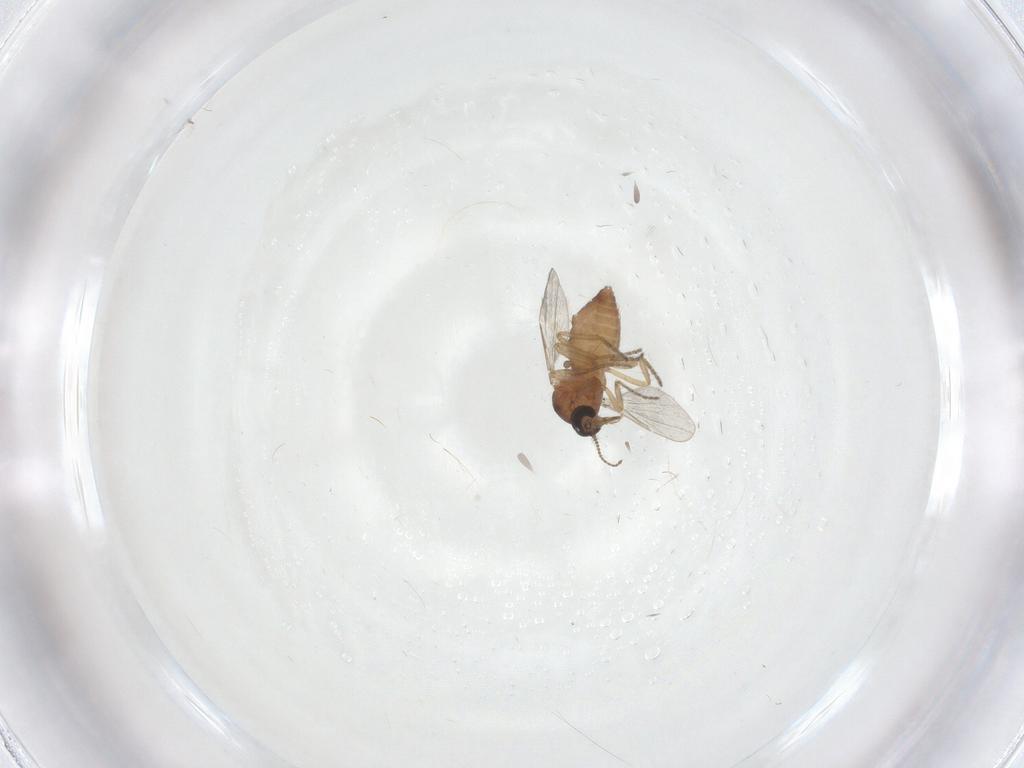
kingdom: Animalia
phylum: Arthropoda
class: Insecta
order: Diptera
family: Ceratopogonidae
